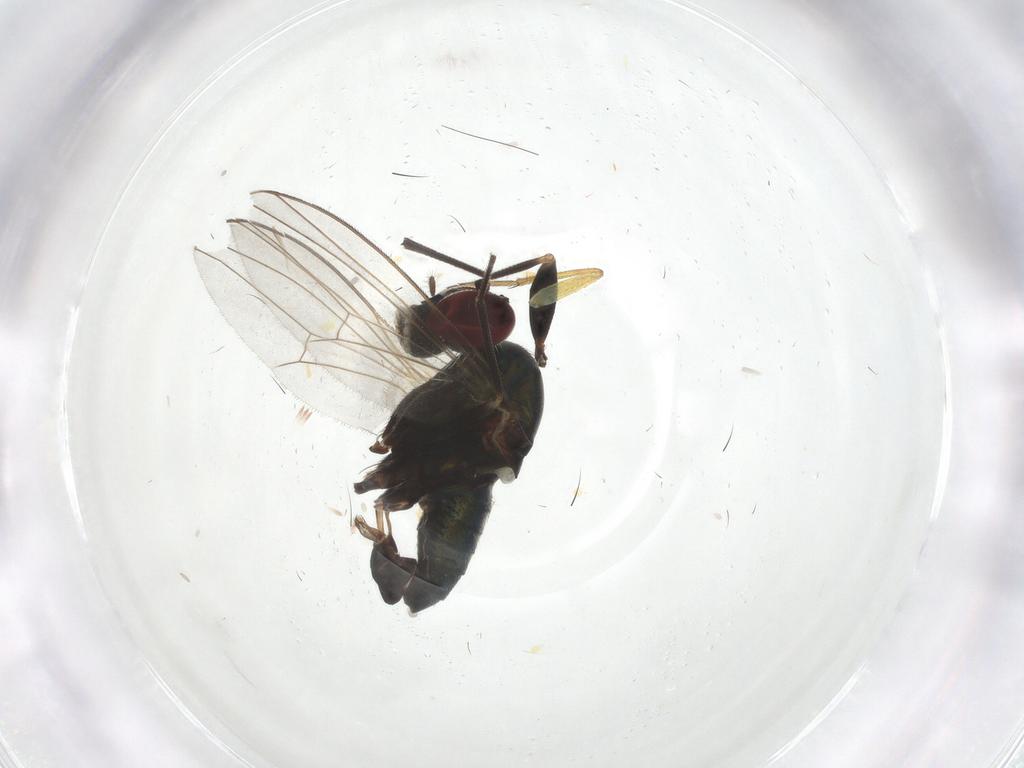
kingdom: Animalia
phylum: Arthropoda
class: Insecta
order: Diptera
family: Dolichopodidae
